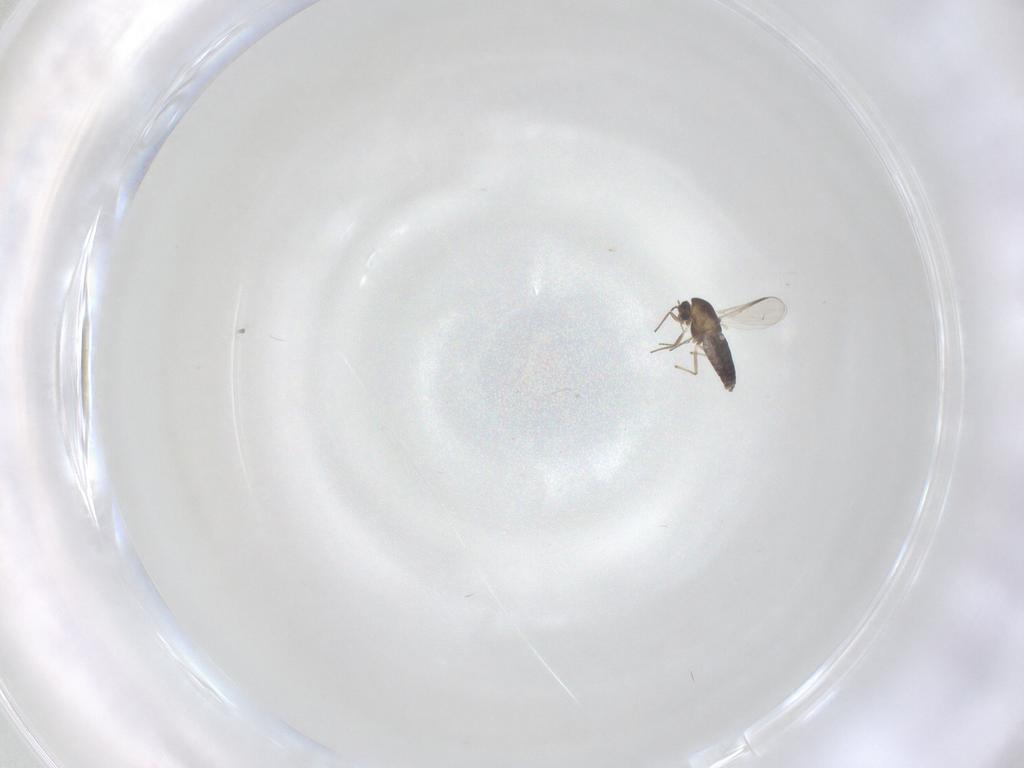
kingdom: Animalia
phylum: Arthropoda
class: Insecta
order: Diptera
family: Chironomidae
